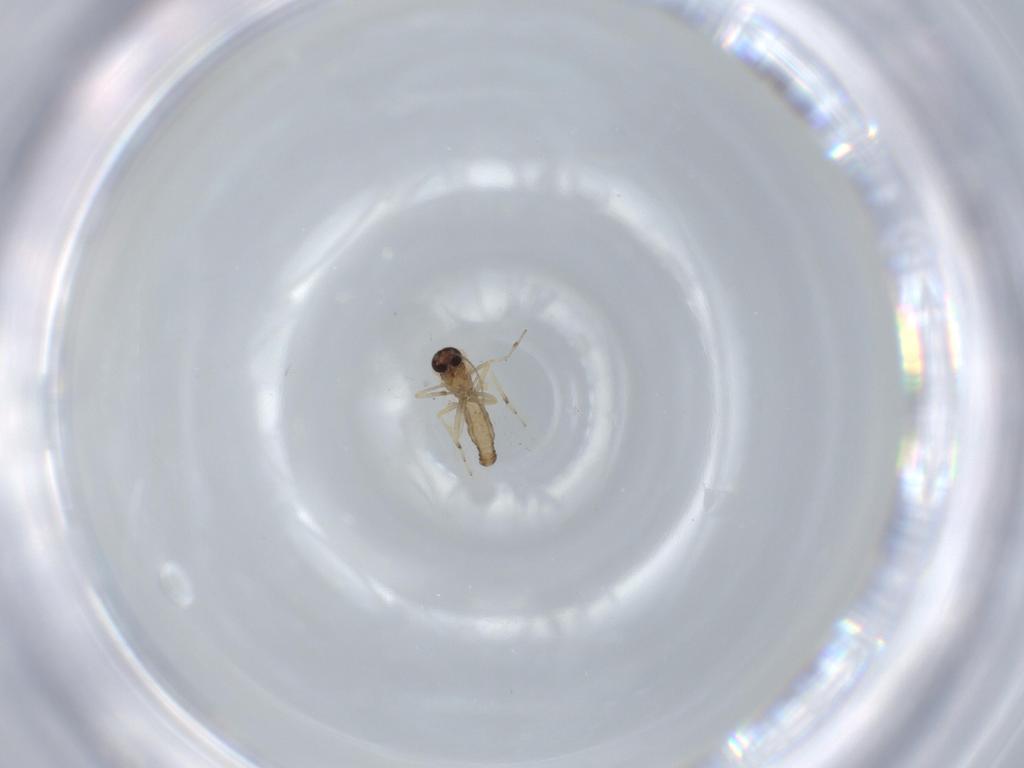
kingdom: Animalia
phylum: Arthropoda
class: Insecta
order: Diptera
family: Ceratopogonidae
